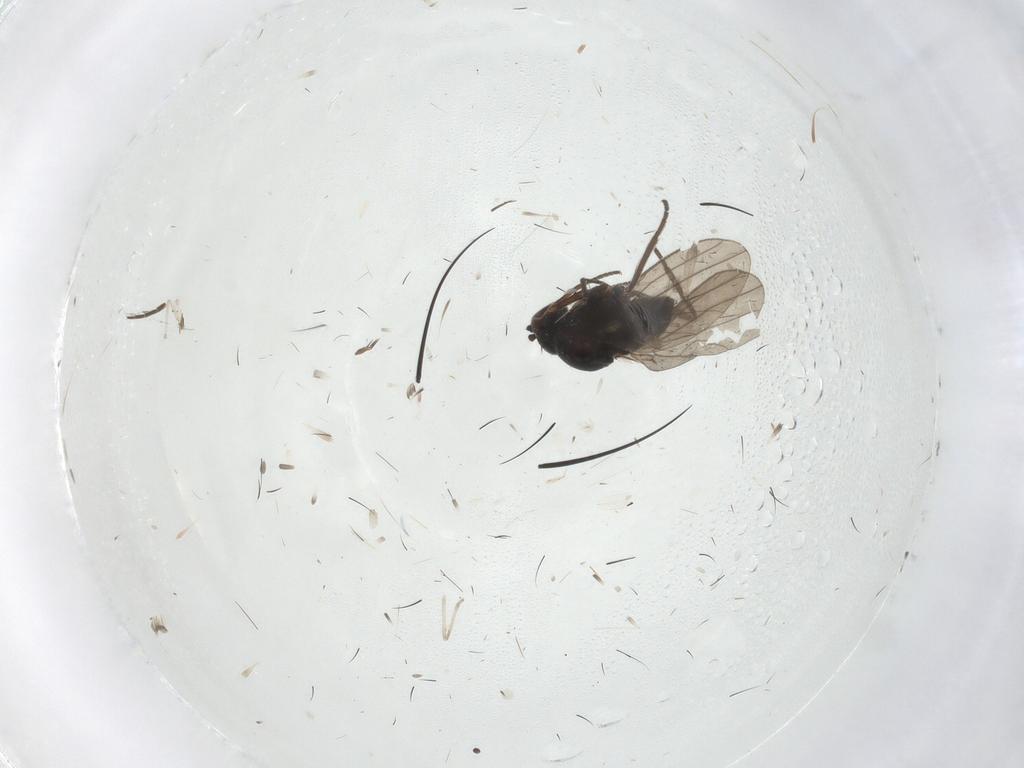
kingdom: Animalia
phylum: Arthropoda
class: Insecta
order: Diptera
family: Dolichopodidae
